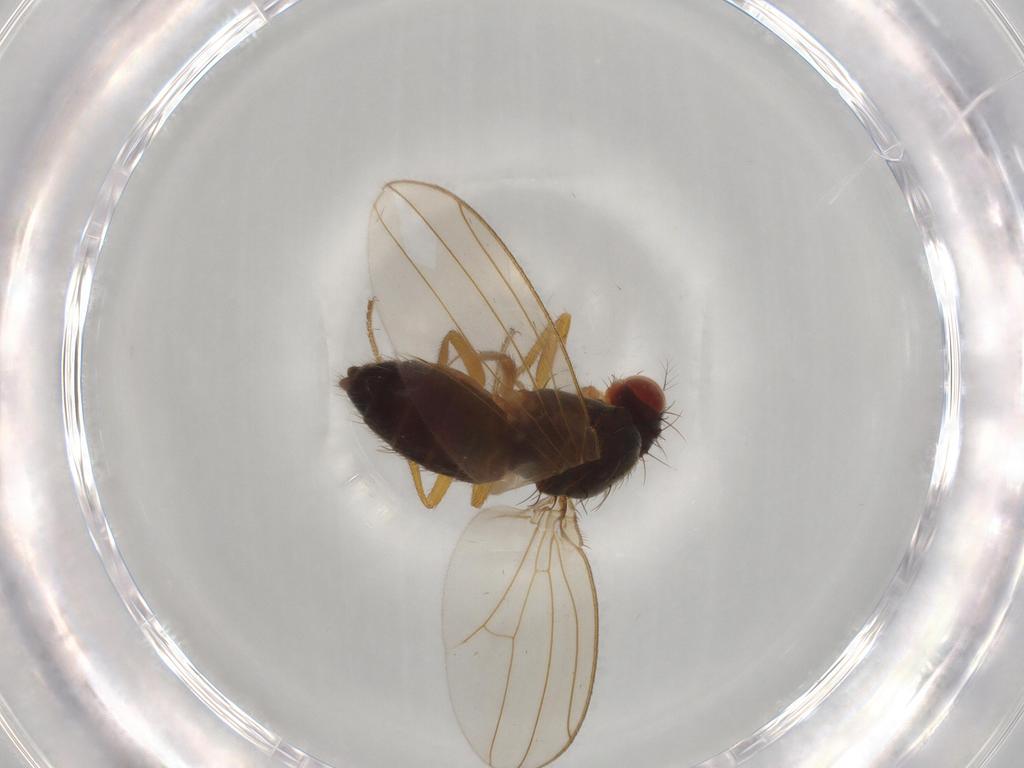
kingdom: Animalia
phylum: Arthropoda
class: Insecta
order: Diptera
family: Drosophilidae
